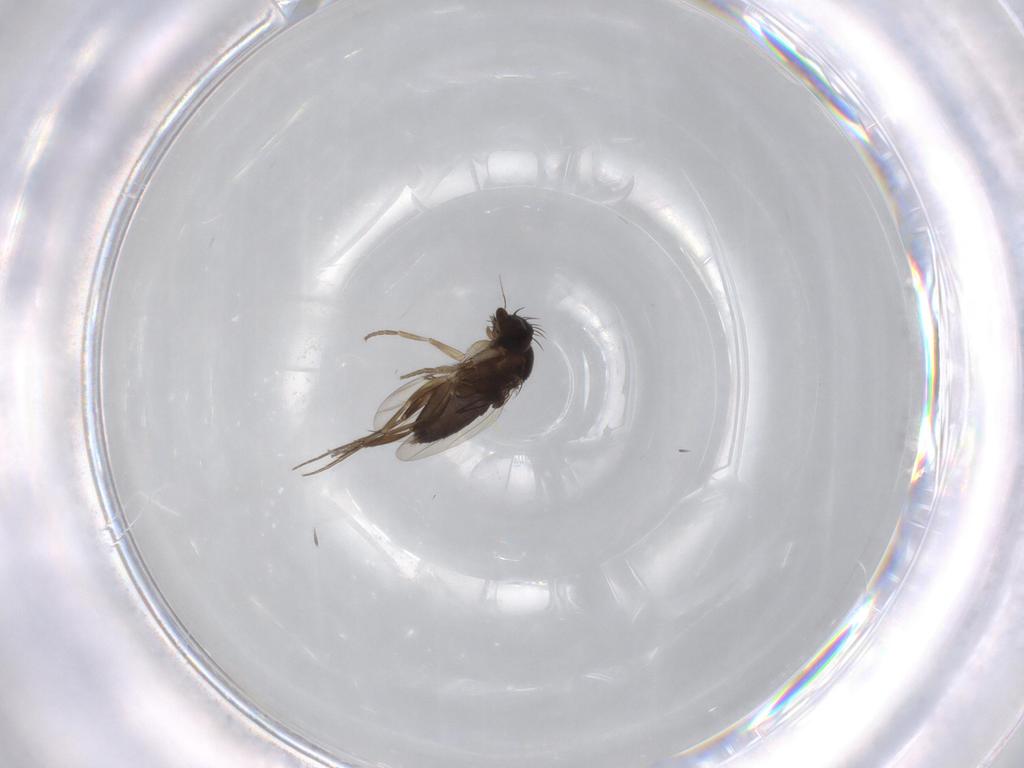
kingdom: Animalia
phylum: Arthropoda
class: Insecta
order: Diptera
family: Phoridae
